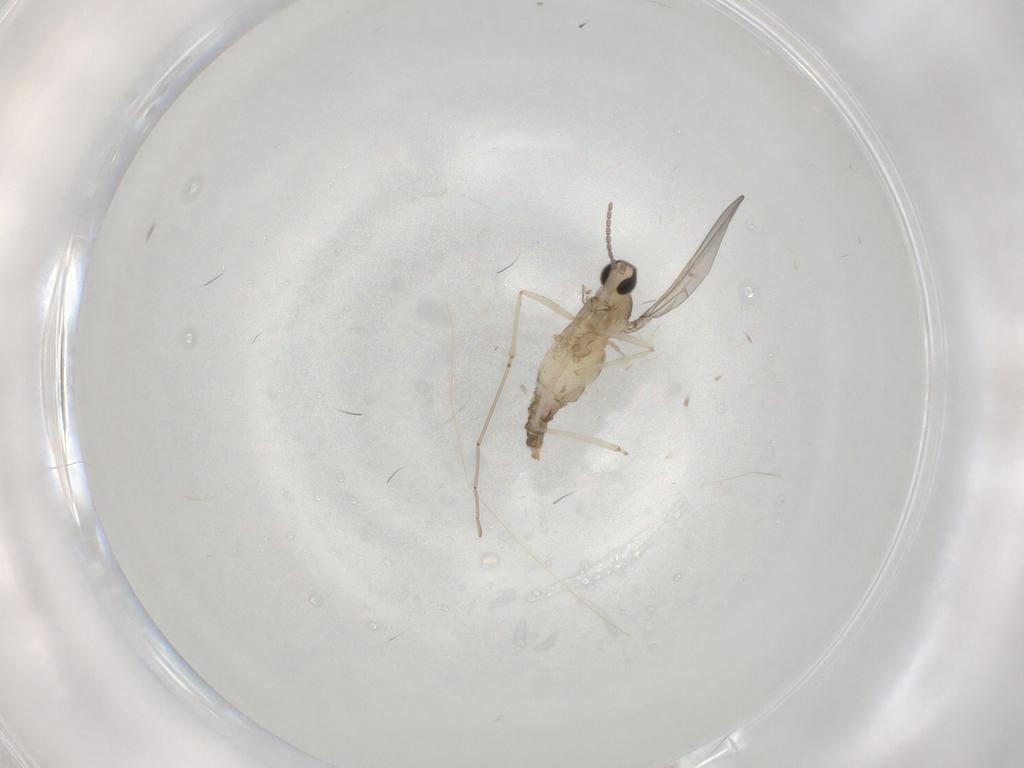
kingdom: Animalia
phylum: Arthropoda
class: Insecta
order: Diptera
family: Cecidomyiidae
